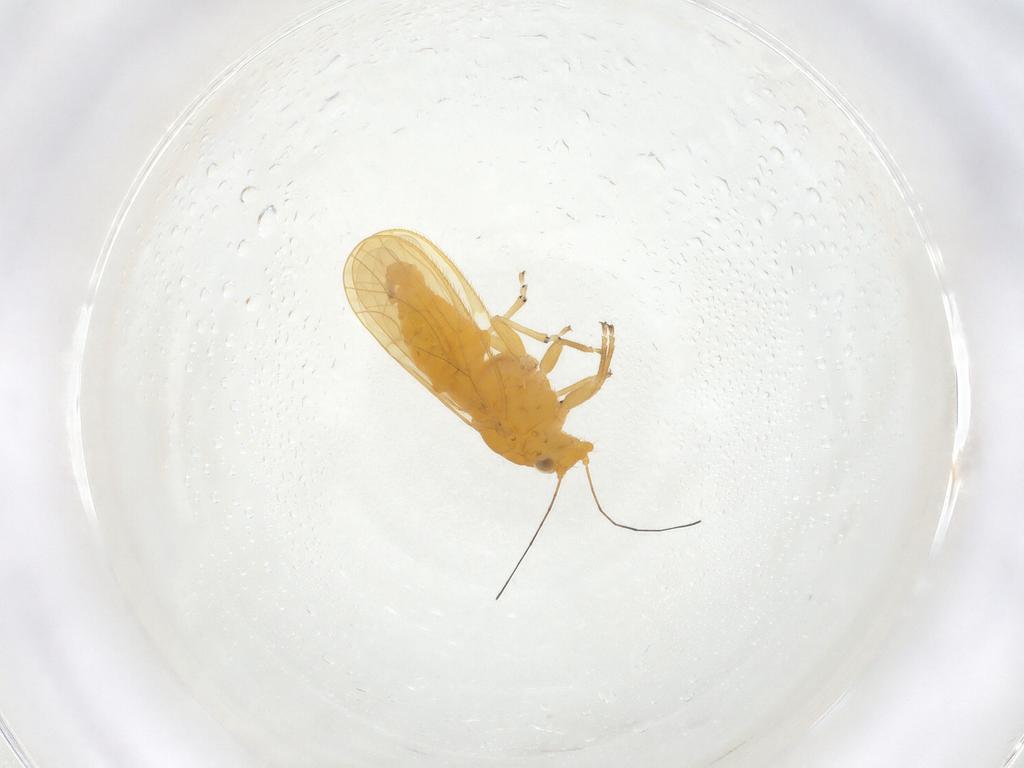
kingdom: Animalia
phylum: Arthropoda
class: Insecta
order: Hemiptera
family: Psyllidae
